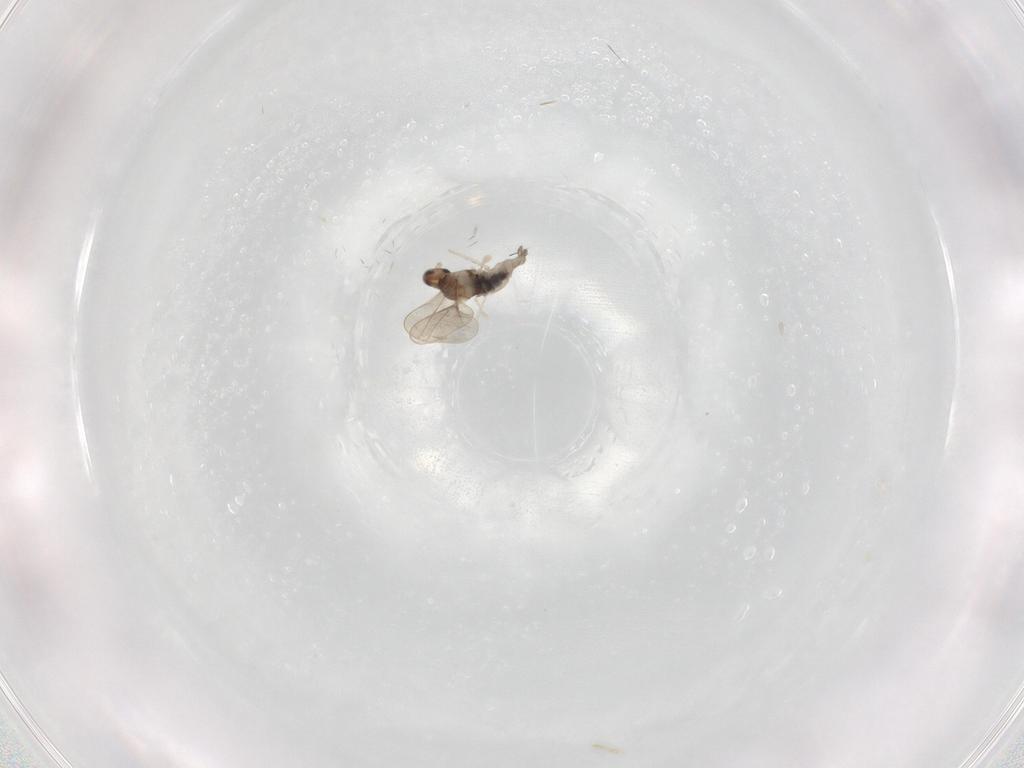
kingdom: Animalia
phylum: Arthropoda
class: Insecta
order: Diptera
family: Cecidomyiidae
